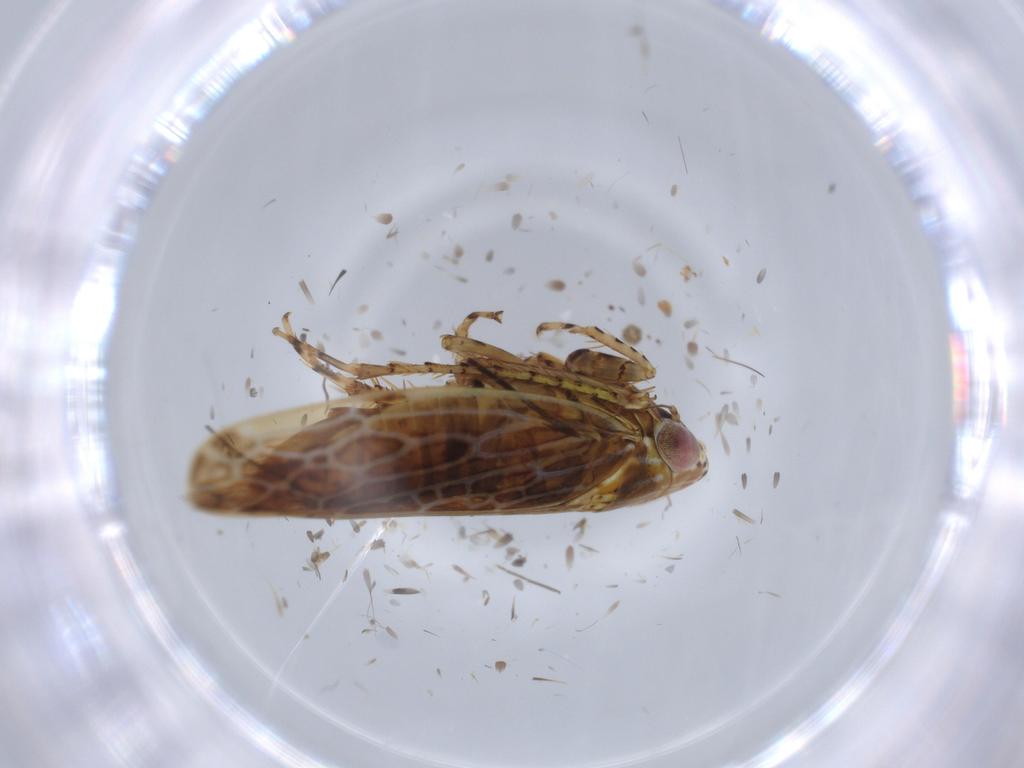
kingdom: Animalia
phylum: Arthropoda
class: Insecta
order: Hemiptera
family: Cicadellidae
